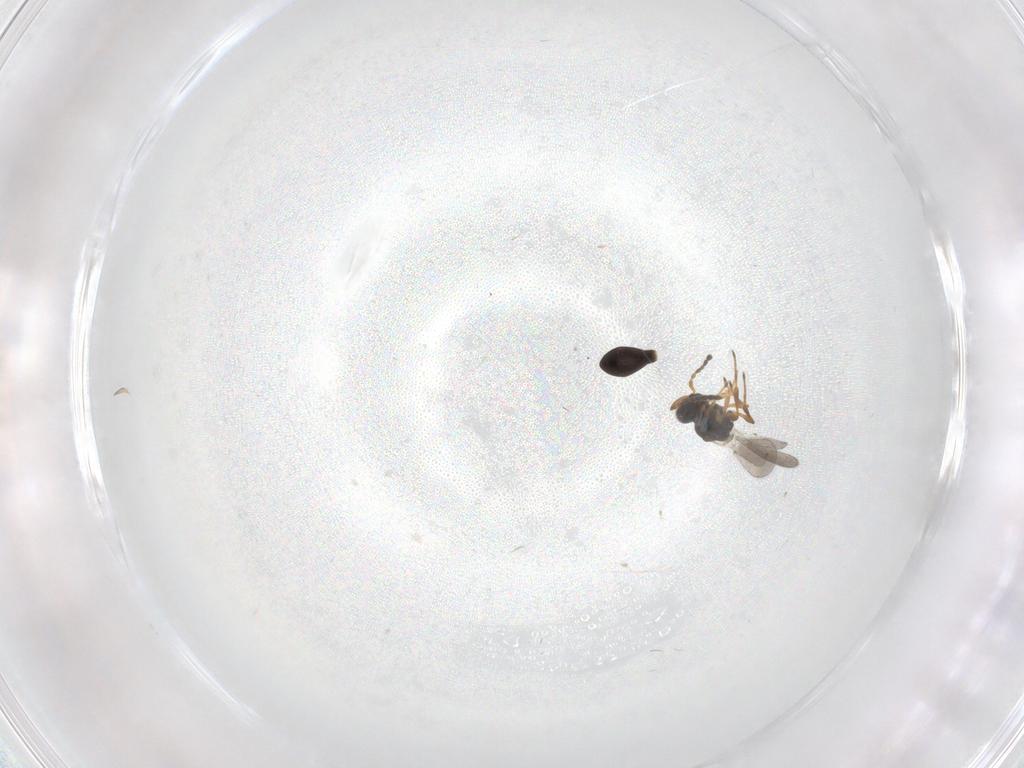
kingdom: Animalia
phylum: Arthropoda
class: Insecta
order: Hymenoptera
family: Platygastridae
